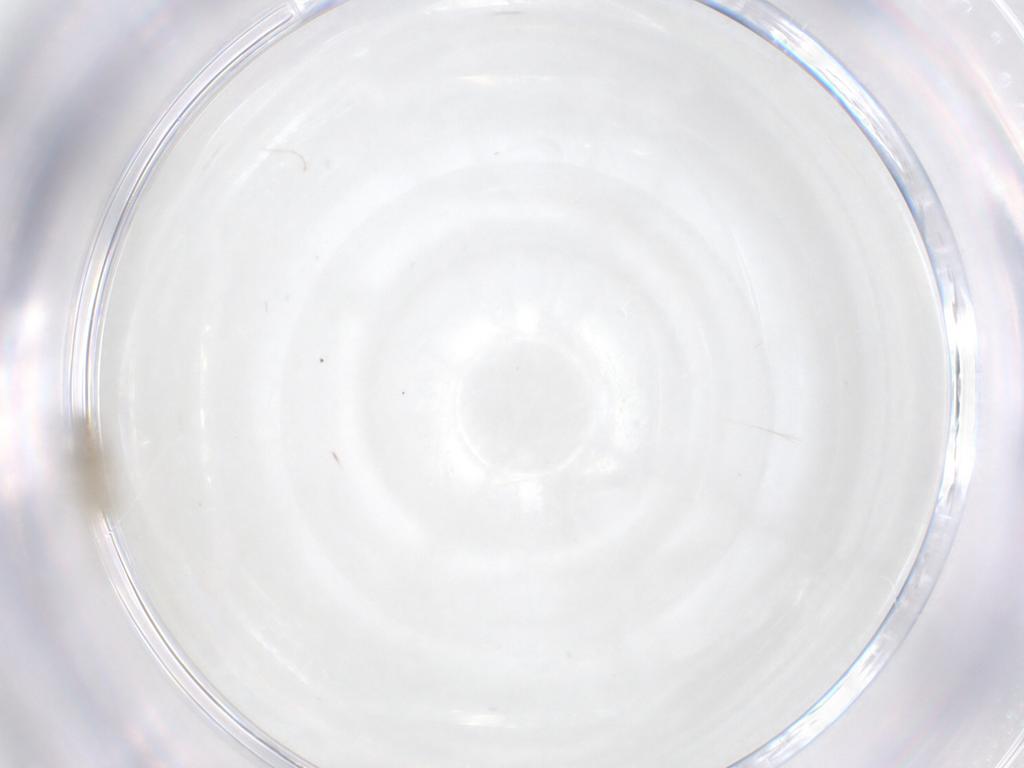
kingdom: Animalia
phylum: Arthropoda
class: Insecta
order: Diptera
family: Cecidomyiidae
